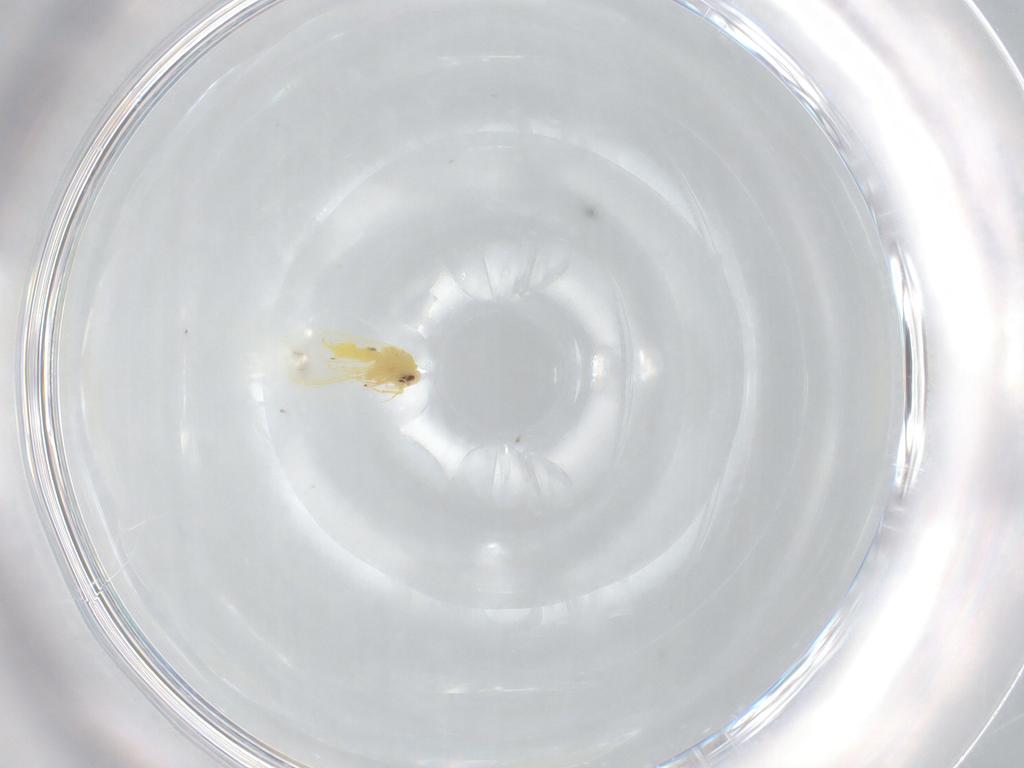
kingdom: Animalia
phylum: Arthropoda
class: Insecta
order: Hemiptera
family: Aleyrodidae
